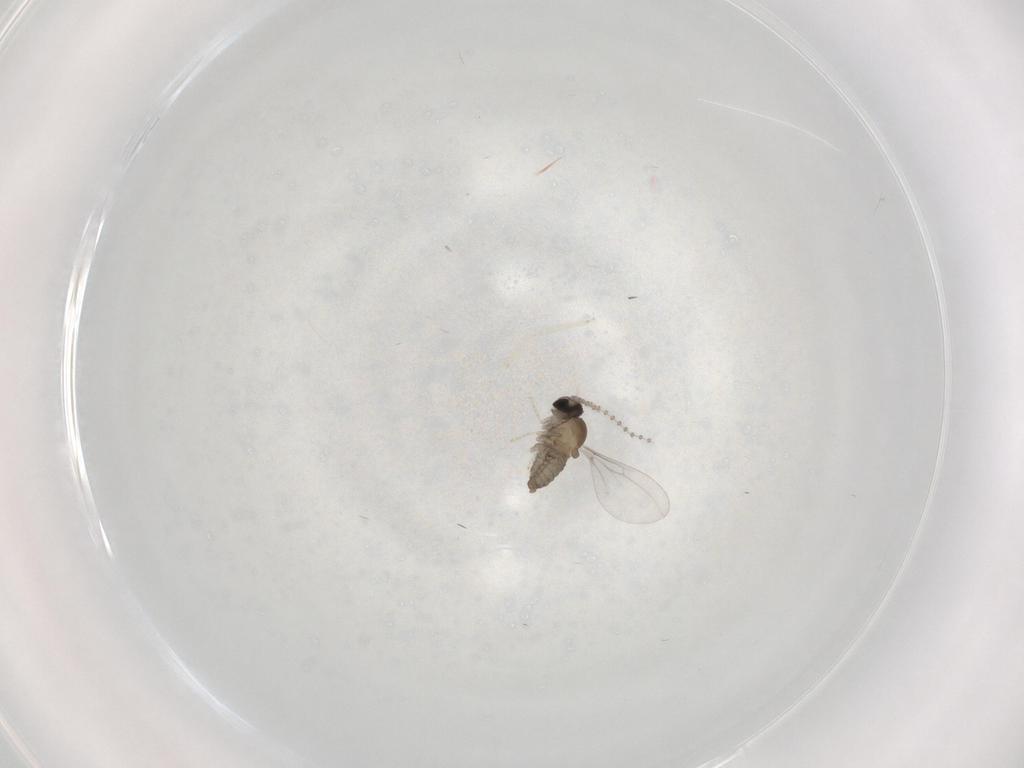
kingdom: Animalia
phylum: Arthropoda
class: Insecta
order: Diptera
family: Cecidomyiidae
